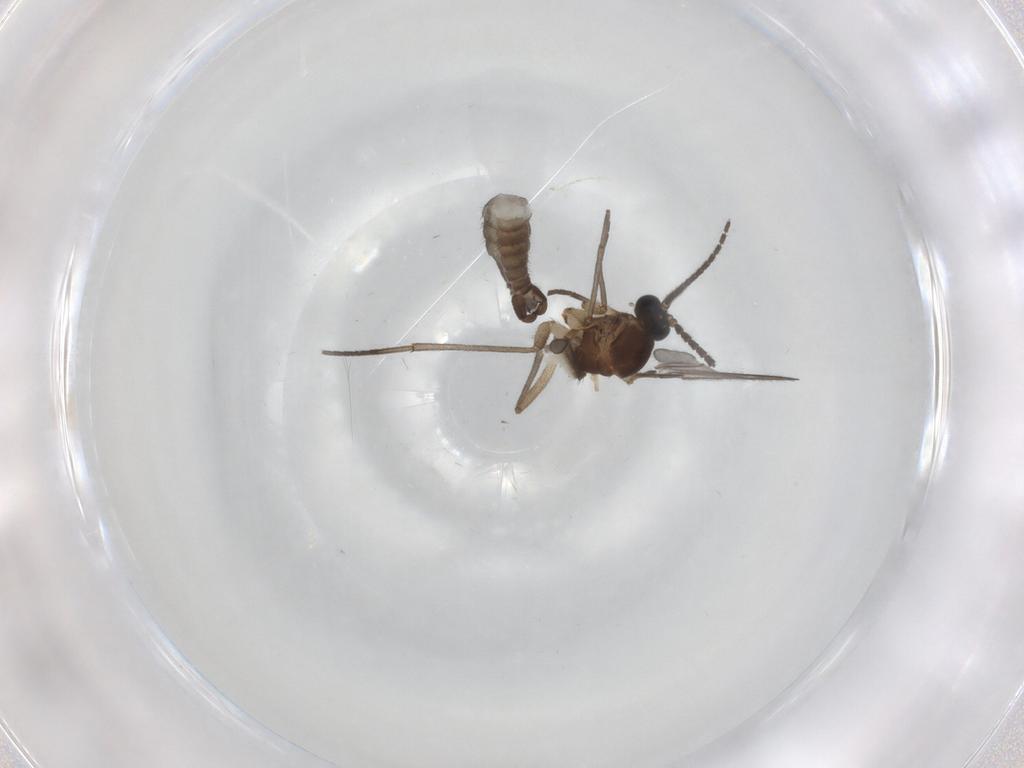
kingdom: Animalia
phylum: Arthropoda
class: Insecta
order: Diptera
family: Sciaridae
